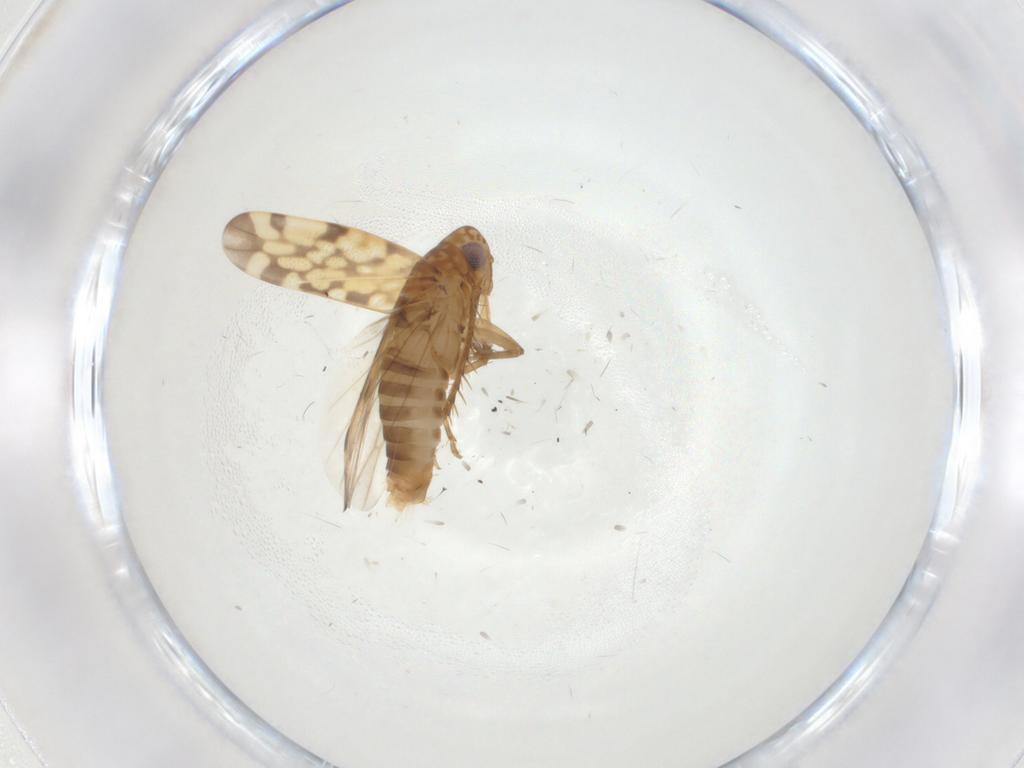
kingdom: Animalia
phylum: Arthropoda
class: Insecta
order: Hemiptera
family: Cicadellidae
